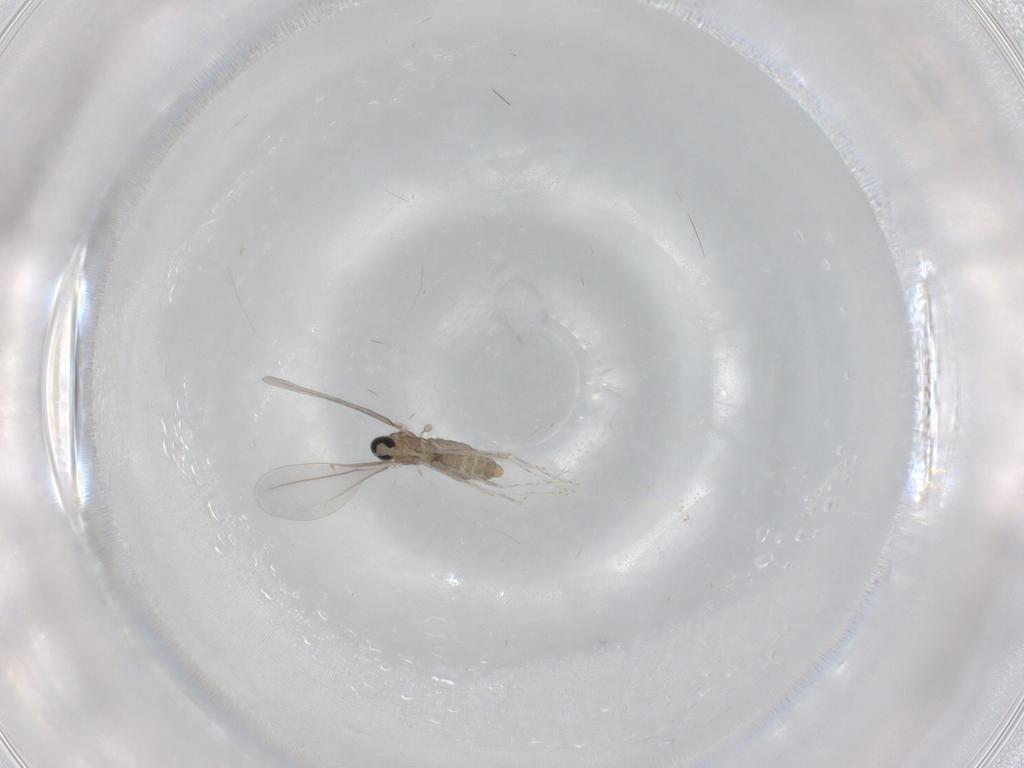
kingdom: Animalia
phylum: Arthropoda
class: Insecta
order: Diptera
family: Cecidomyiidae
